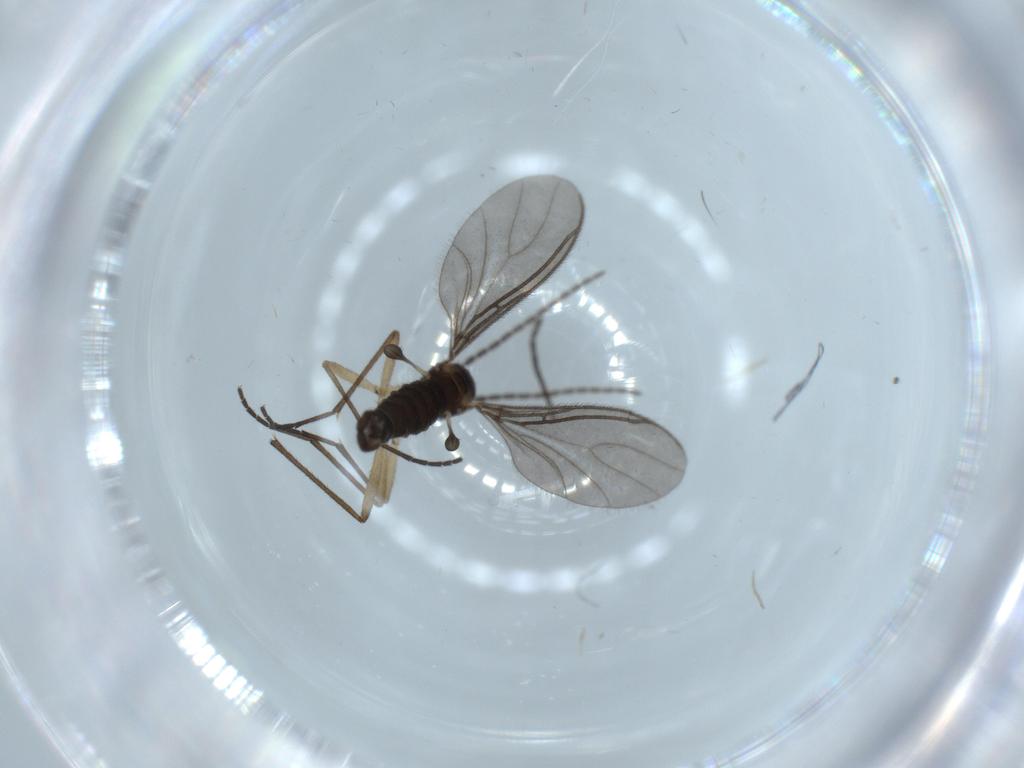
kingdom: Animalia
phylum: Arthropoda
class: Insecta
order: Diptera
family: Sciaridae
